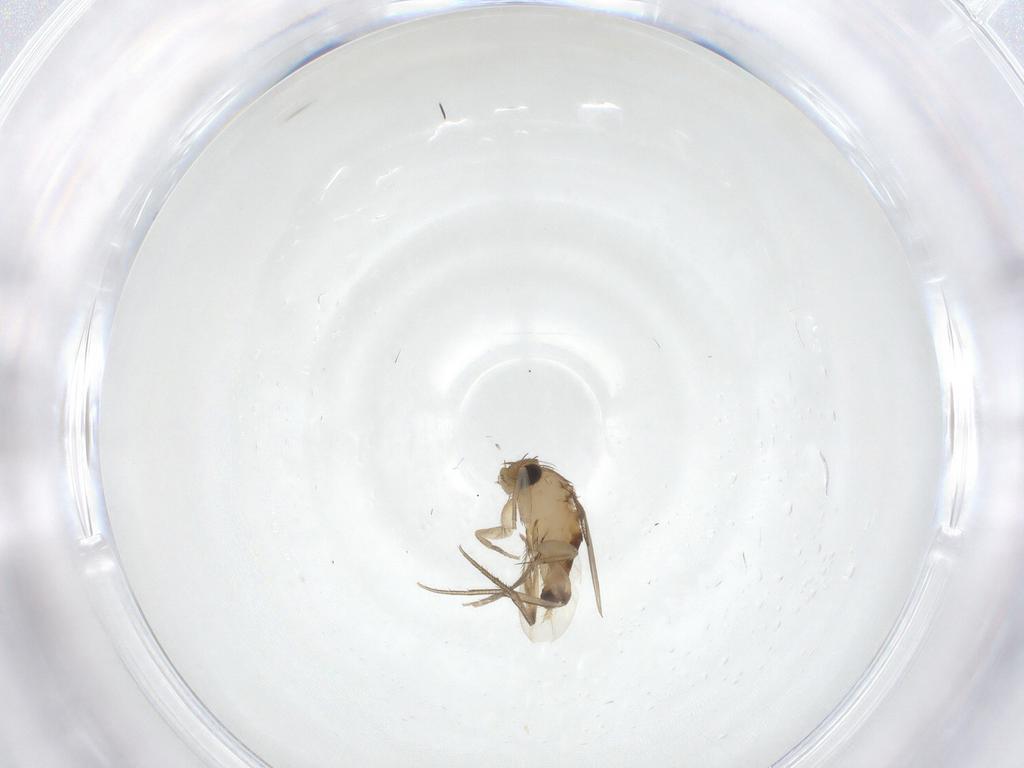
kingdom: Animalia
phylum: Arthropoda
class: Insecta
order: Diptera
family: Phoridae
